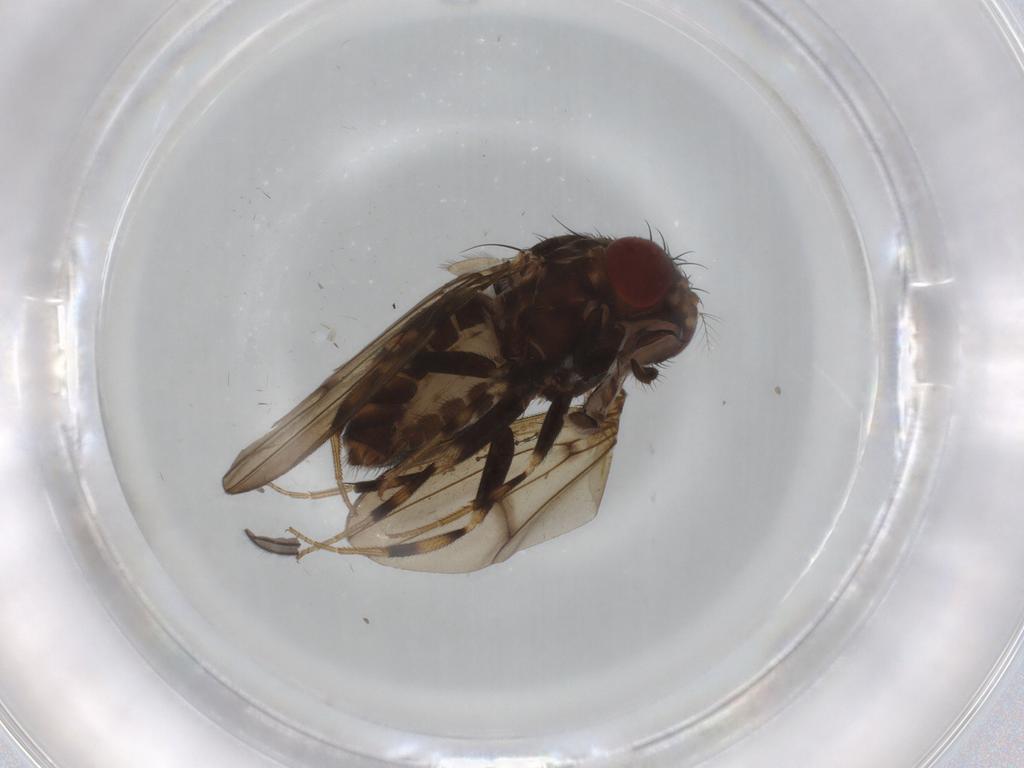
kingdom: Animalia
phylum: Arthropoda
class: Insecta
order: Diptera
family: Drosophilidae
